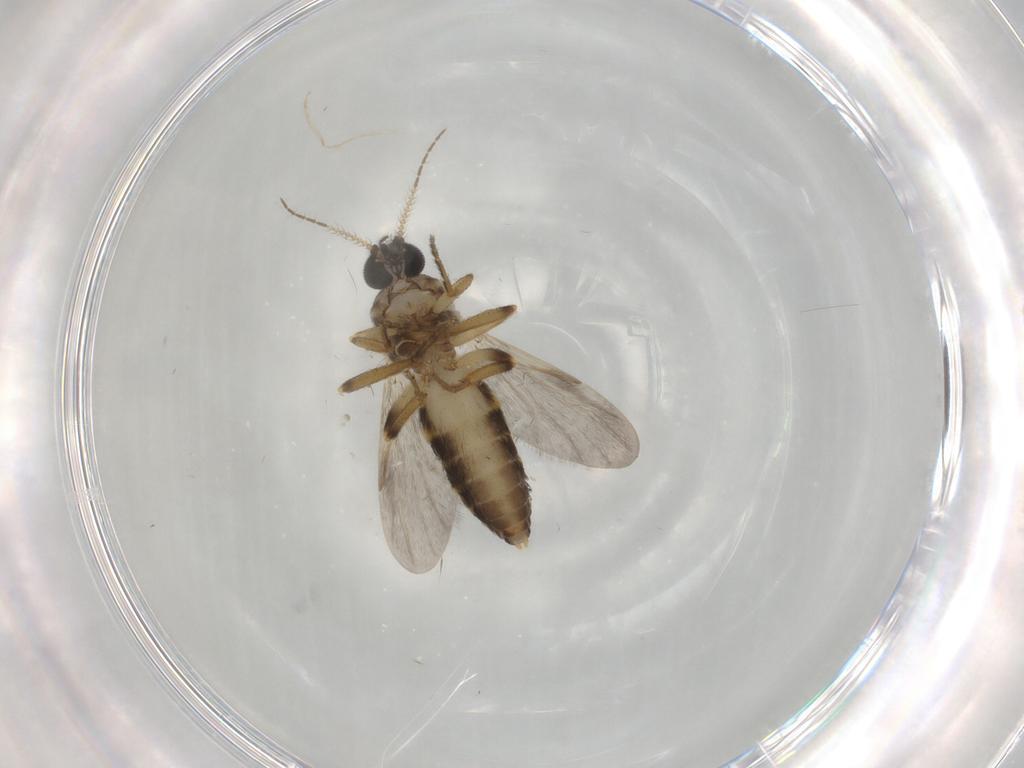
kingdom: Animalia
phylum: Arthropoda
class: Insecta
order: Diptera
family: Ceratopogonidae
